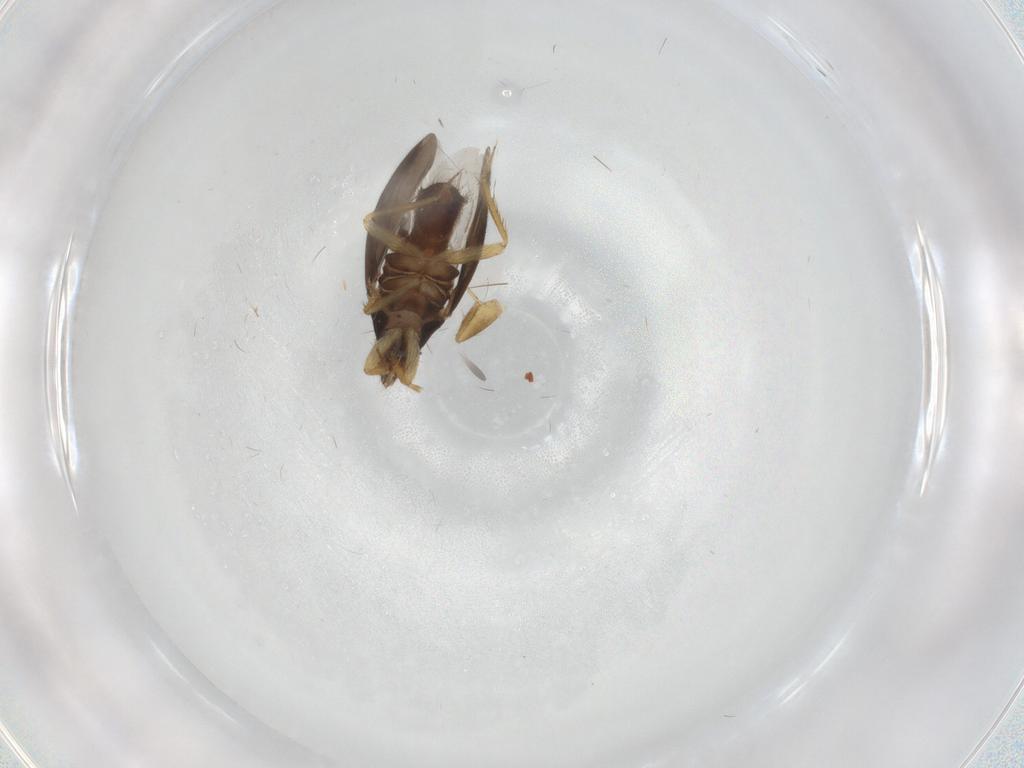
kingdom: Animalia
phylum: Arthropoda
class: Insecta
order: Hemiptera
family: Ceratocombidae
